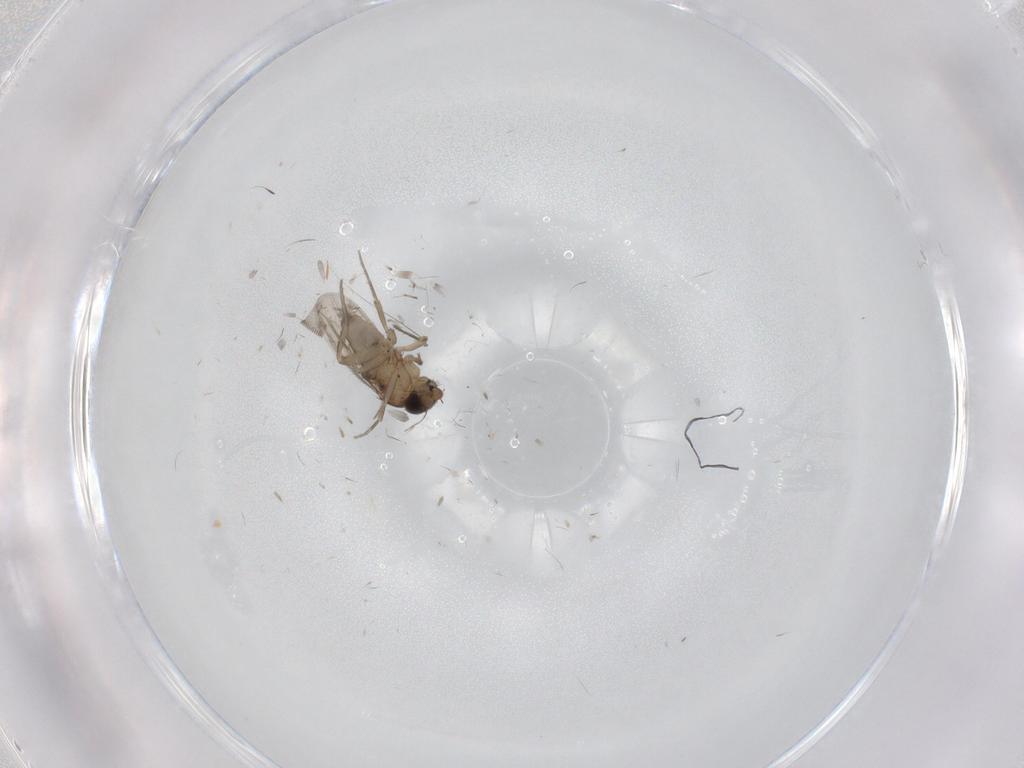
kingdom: Animalia
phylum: Arthropoda
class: Insecta
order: Diptera
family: Phoridae
